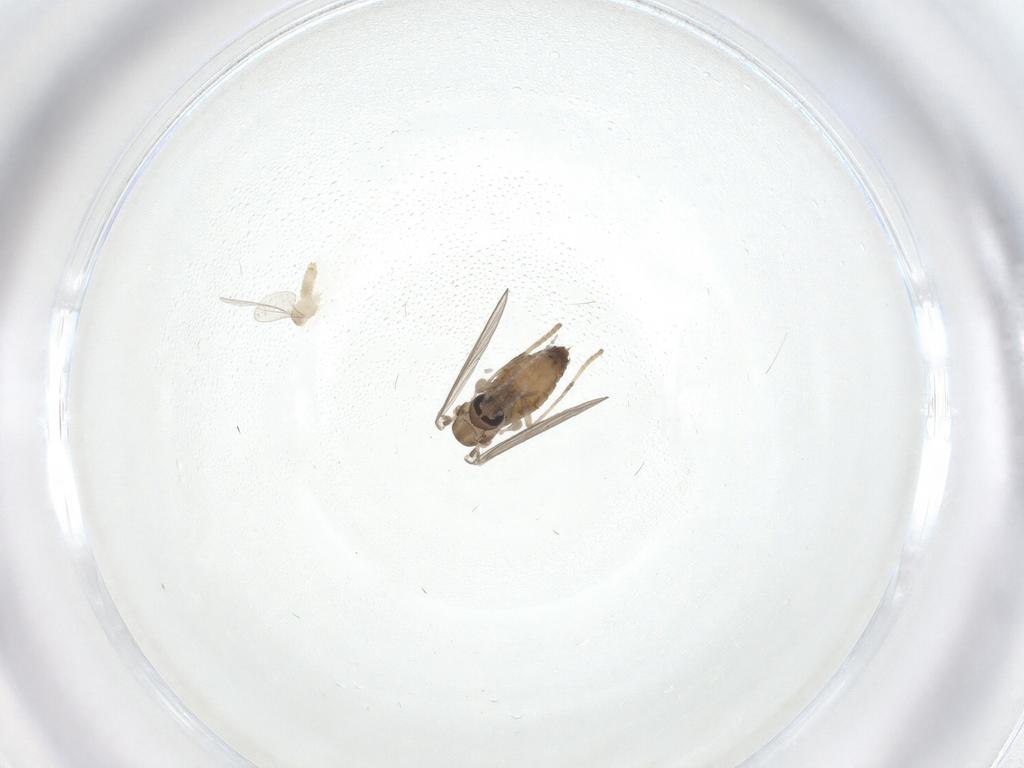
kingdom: Animalia
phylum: Arthropoda
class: Insecta
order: Diptera
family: Psychodidae
